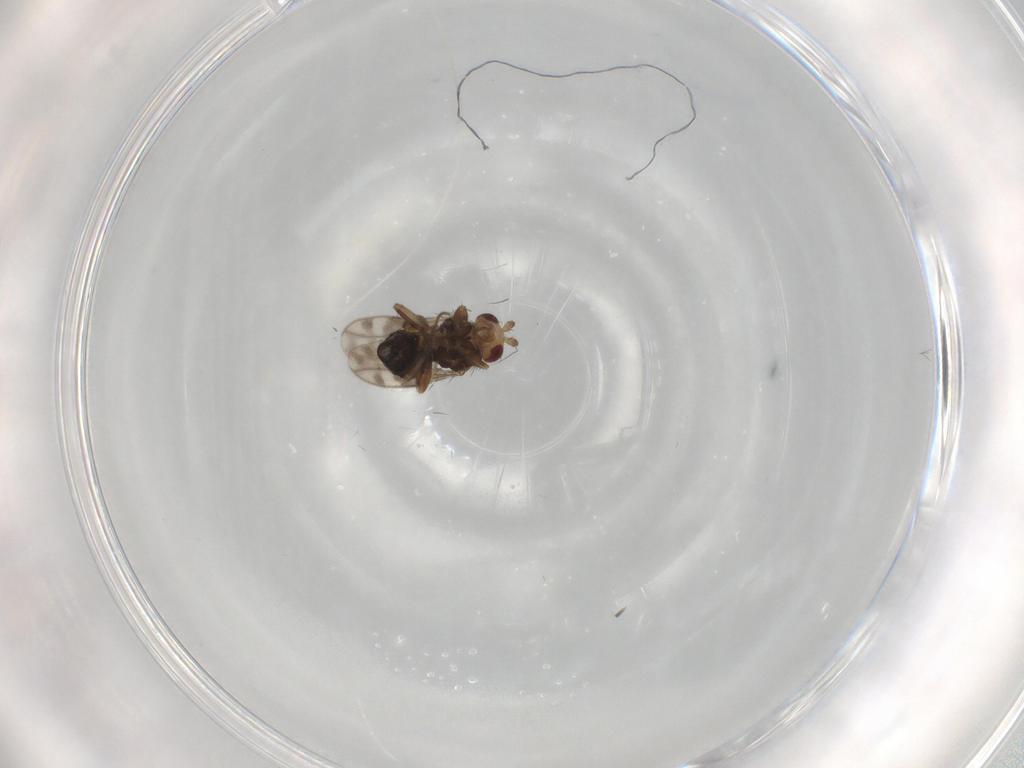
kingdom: Animalia
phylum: Arthropoda
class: Insecta
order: Diptera
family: Sphaeroceridae
